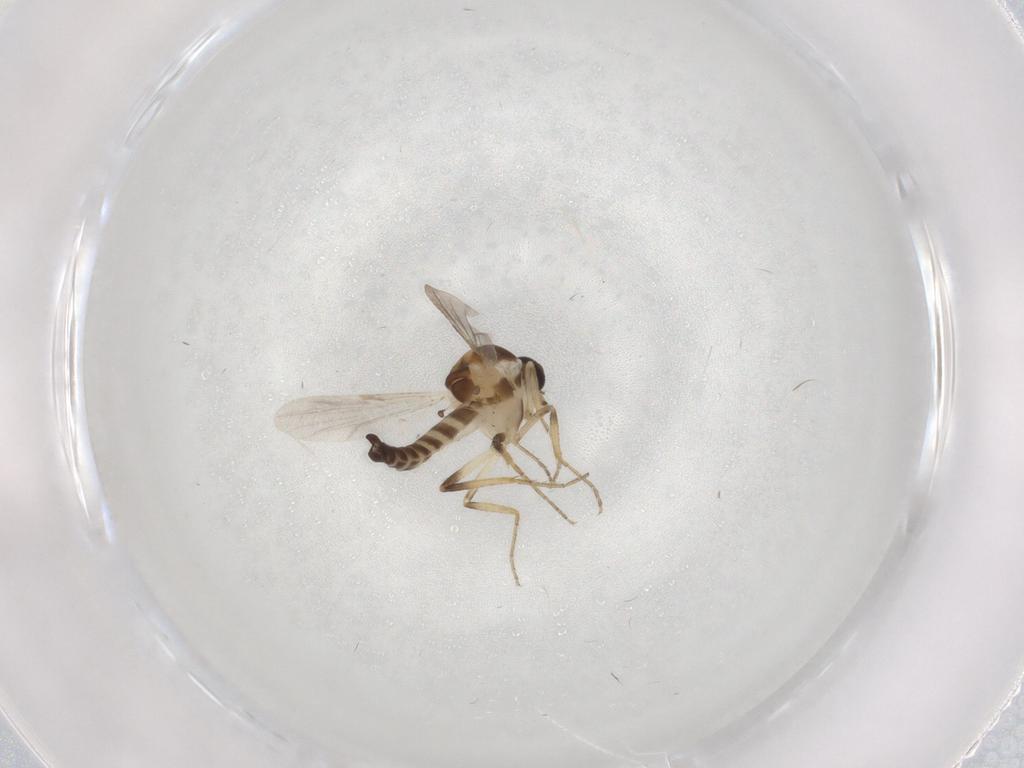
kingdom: Animalia
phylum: Arthropoda
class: Insecta
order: Diptera
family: Ceratopogonidae
